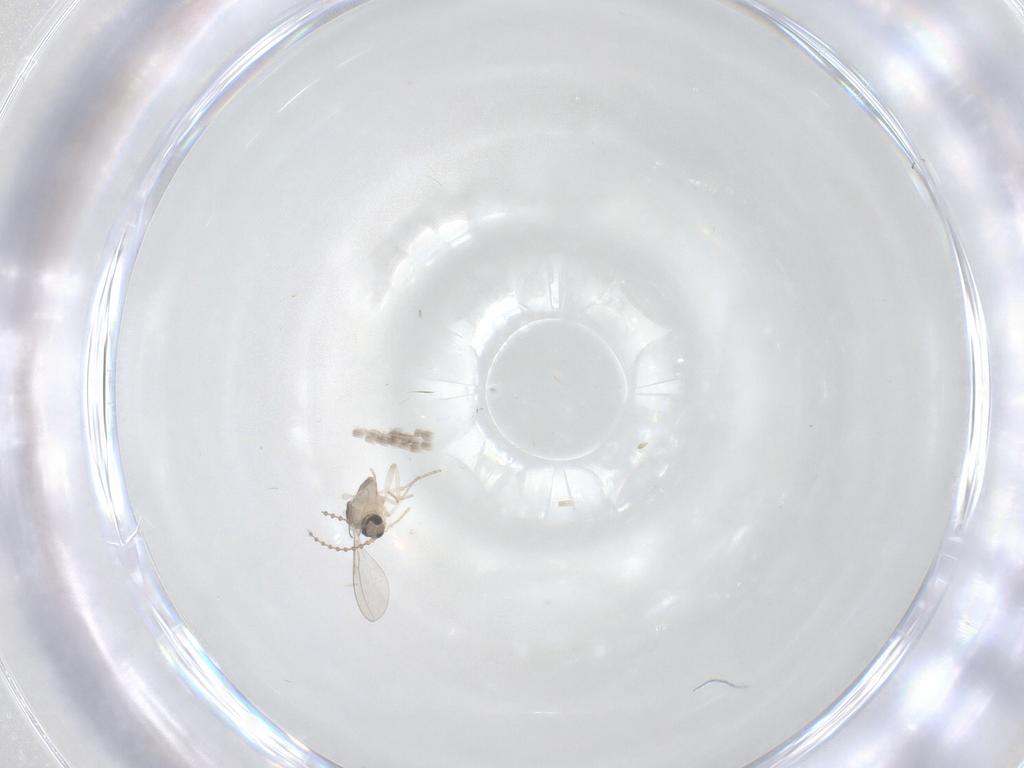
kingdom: Animalia
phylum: Arthropoda
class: Insecta
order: Diptera
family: Cecidomyiidae
